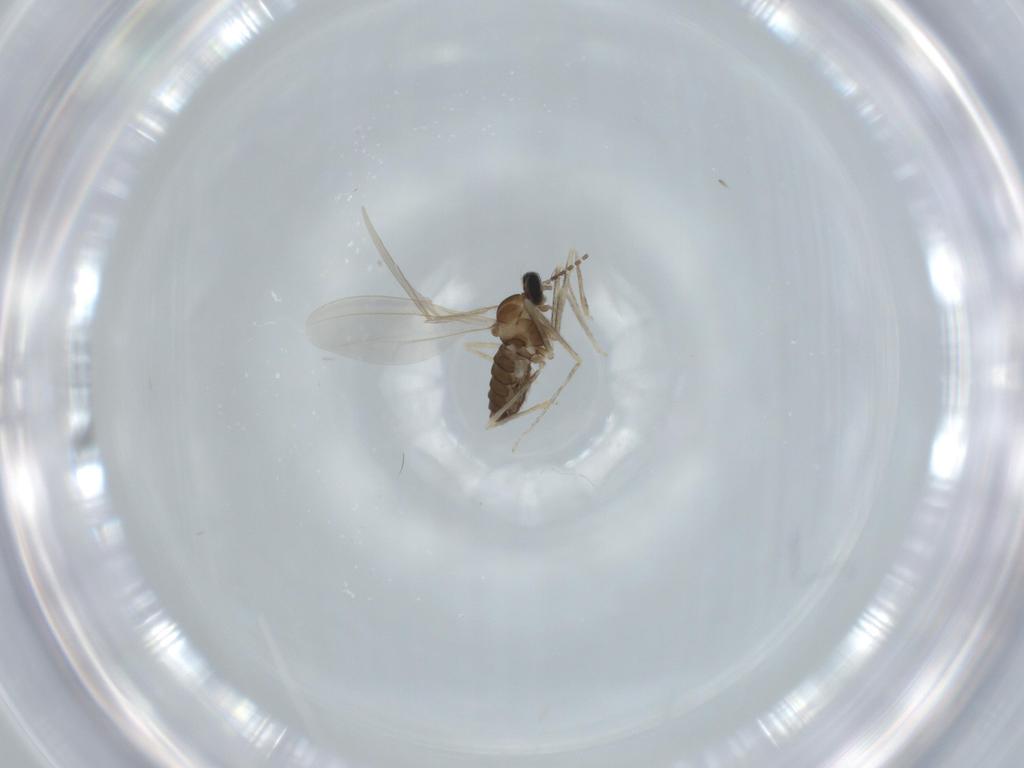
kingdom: Animalia
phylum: Arthropoda
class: Insecta
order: Diptera
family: Cecidomyiidae
